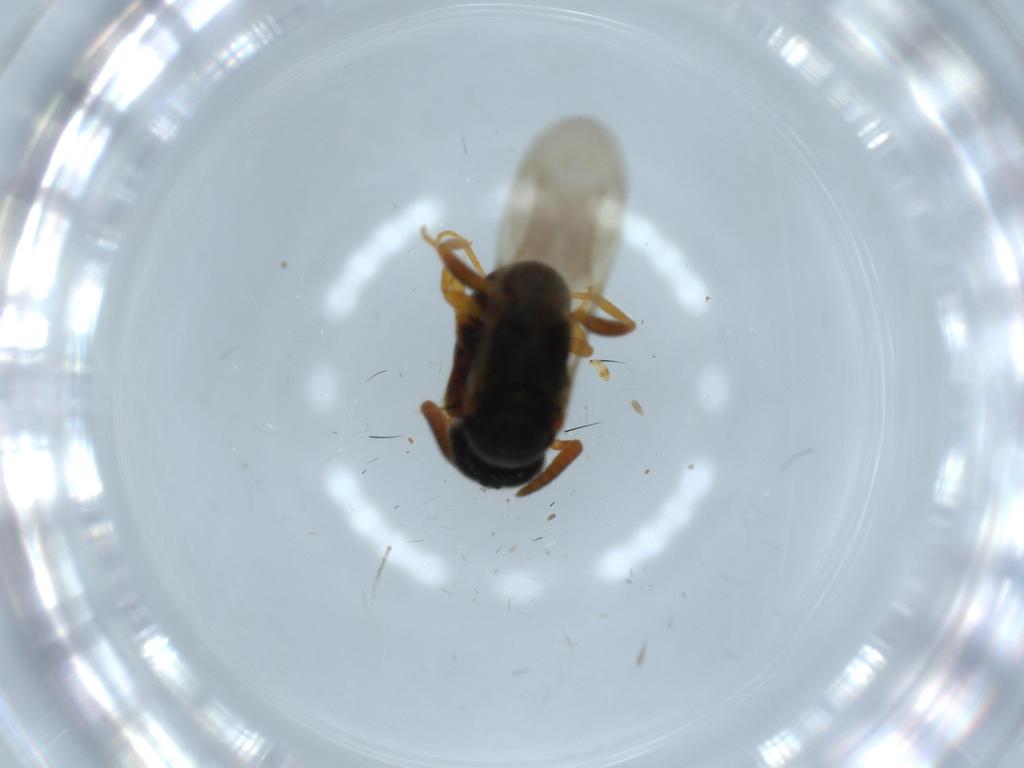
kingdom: Animalia
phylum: Arthropoda
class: Insecta
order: Hymenoptera
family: Bethylidae
